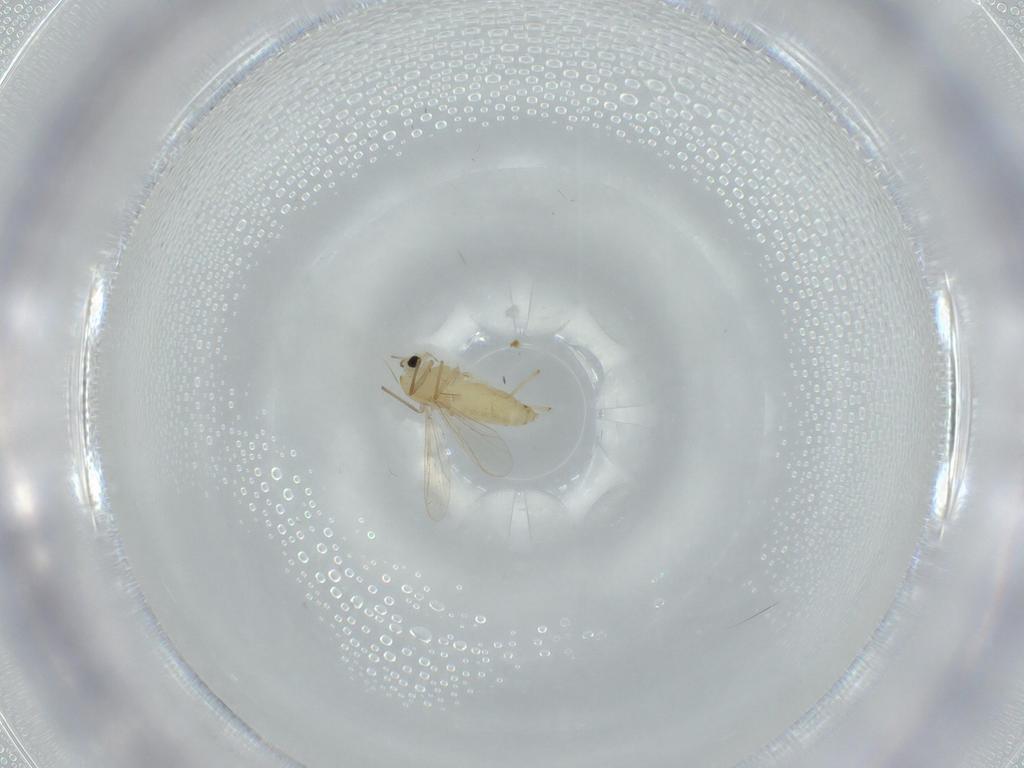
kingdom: Animalia
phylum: Arthropoda
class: Insecta
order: Diptera
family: Chironomidae
